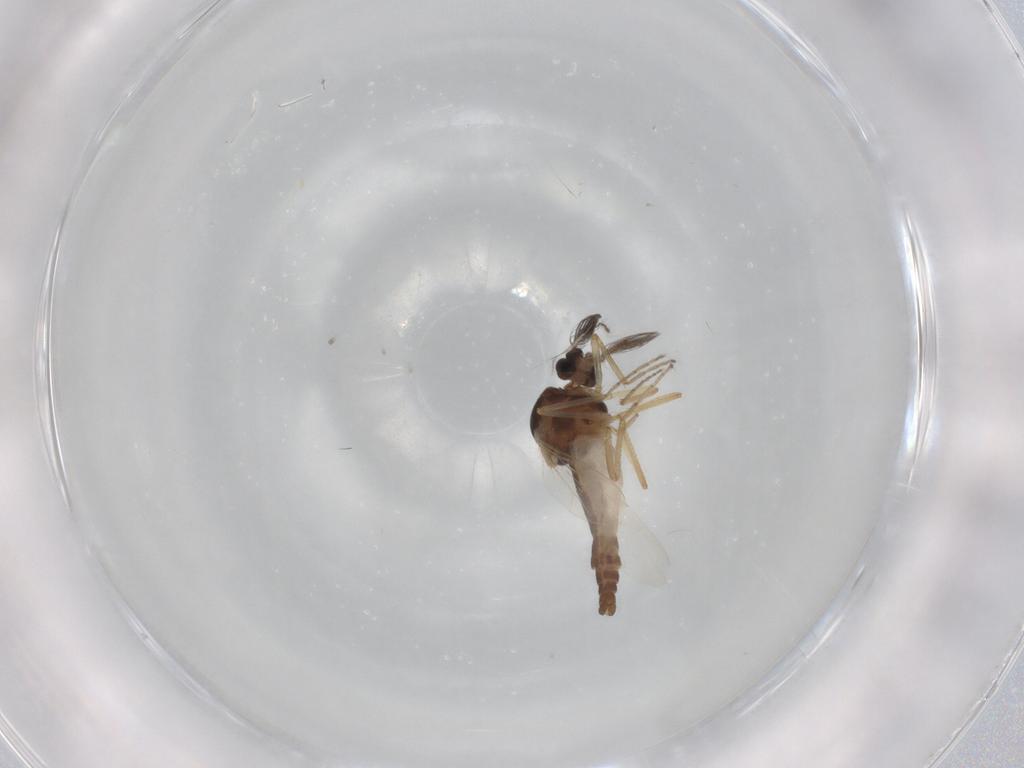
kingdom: Animalia
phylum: Arthropoda
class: Insecta
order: Diptera
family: Ceratopogonidae
